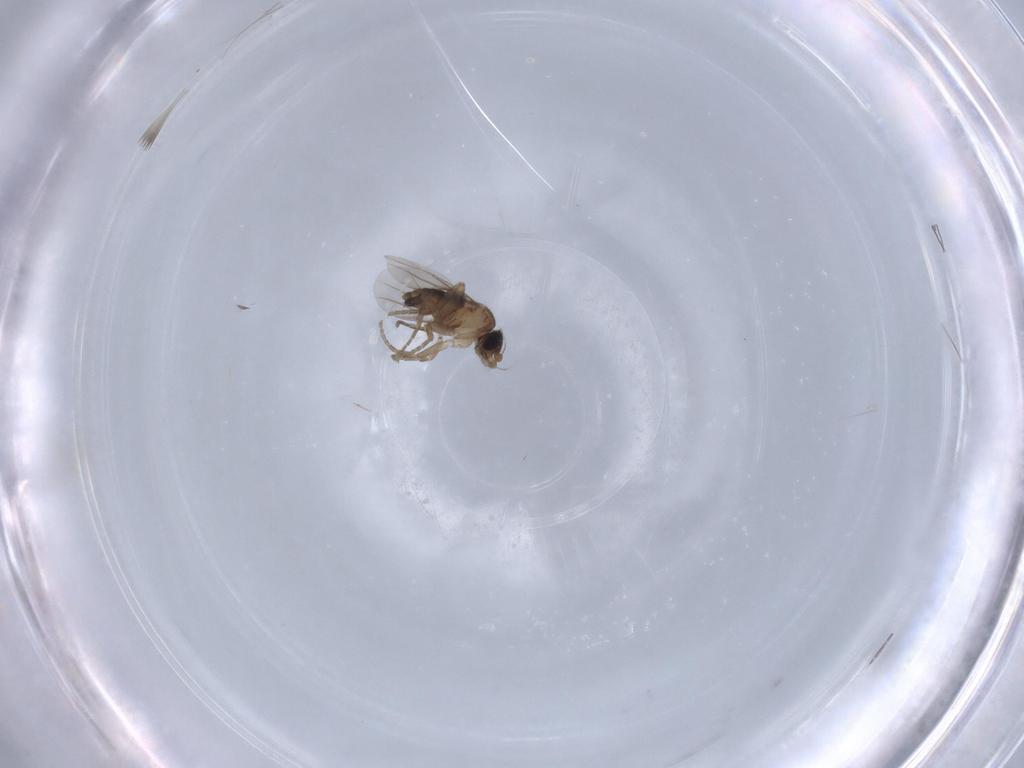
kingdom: Animalia
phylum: Arthropoda
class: Insecta
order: Diptera
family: Chironomidae
